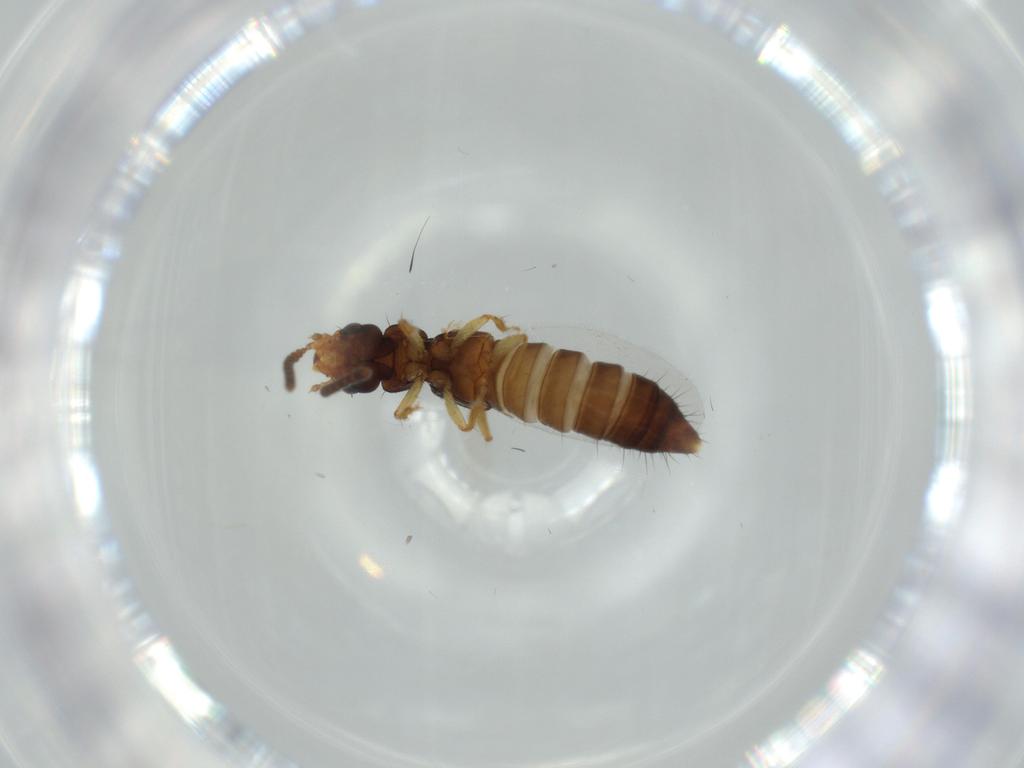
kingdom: Animalia
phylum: Arthropoda
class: Insecta
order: Coleoptera
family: Staphylinidae
